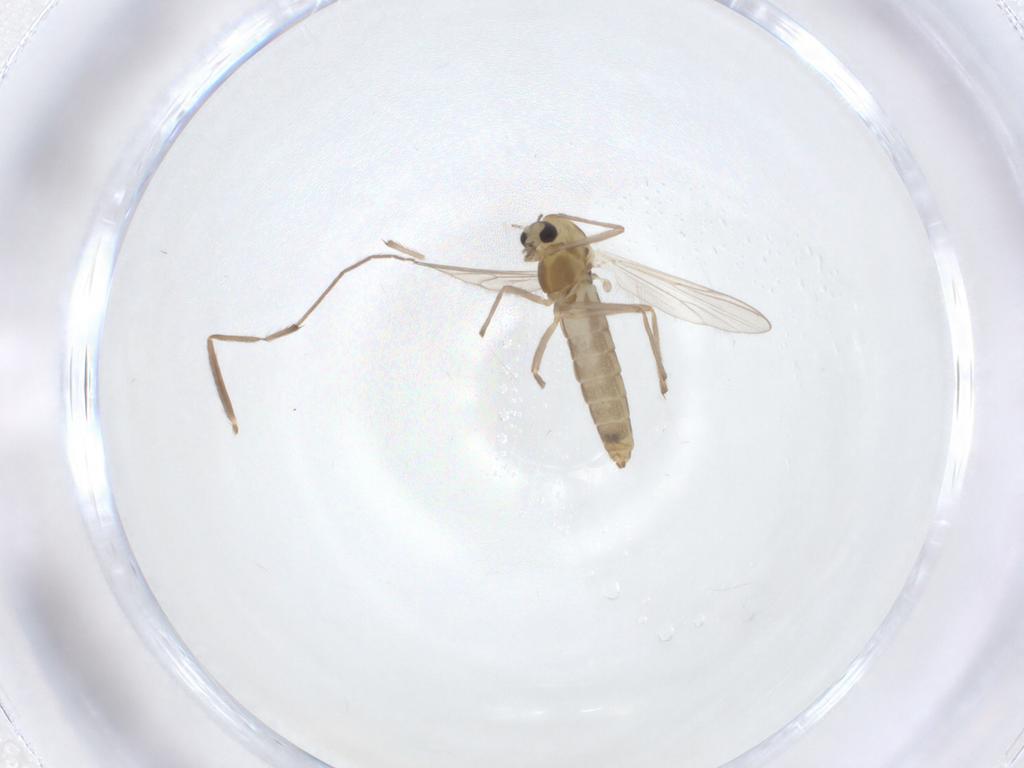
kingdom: Animalia
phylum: Arthropoda
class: Insecta
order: Diptera
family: Chironomidae
